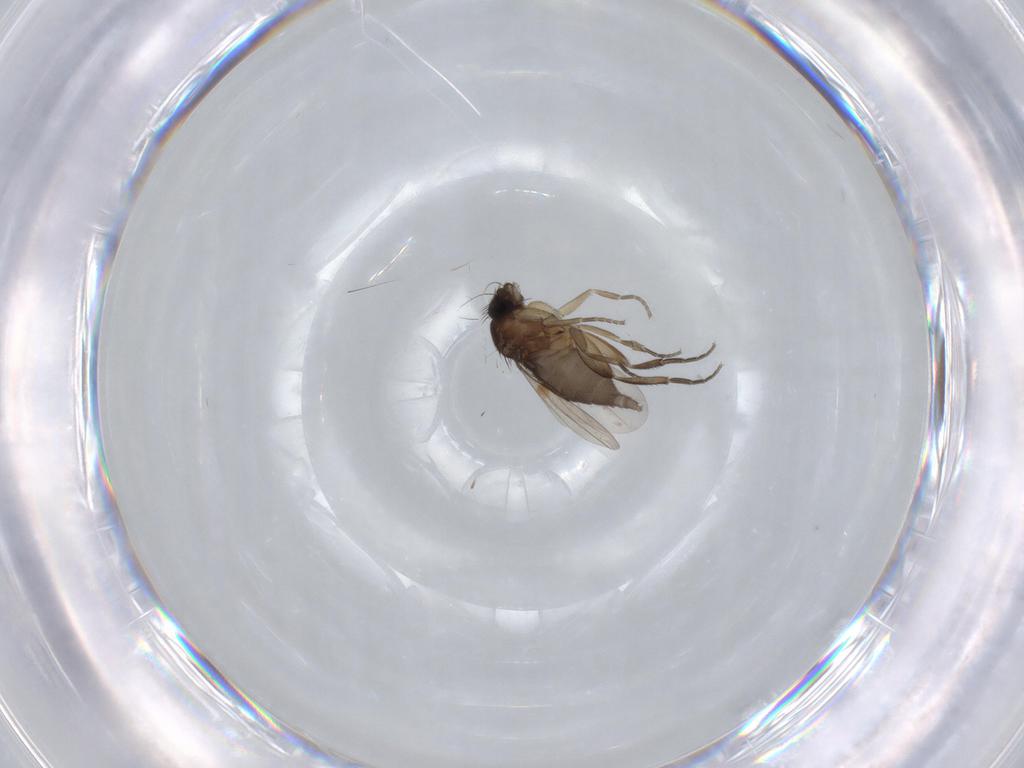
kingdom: Animalia
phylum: Arthropoda
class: Insecta
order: Diptera
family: Phoridae
